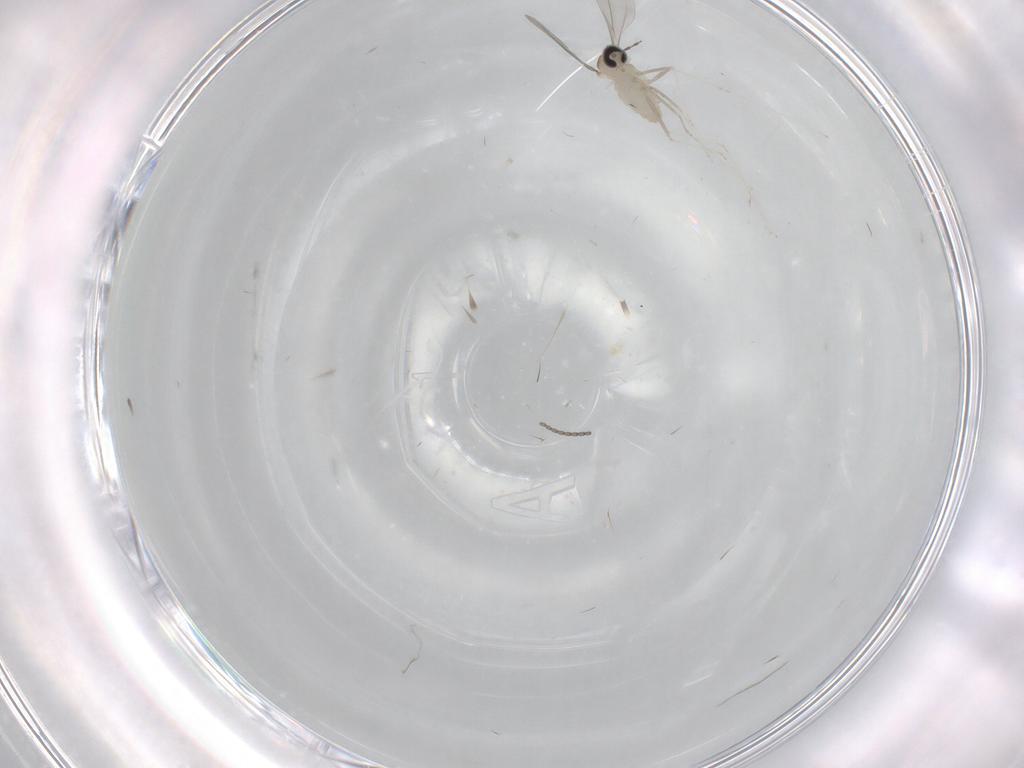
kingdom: Animalia
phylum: Arthropoda
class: Insecta
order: Diptera
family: Cecidomyiidae
